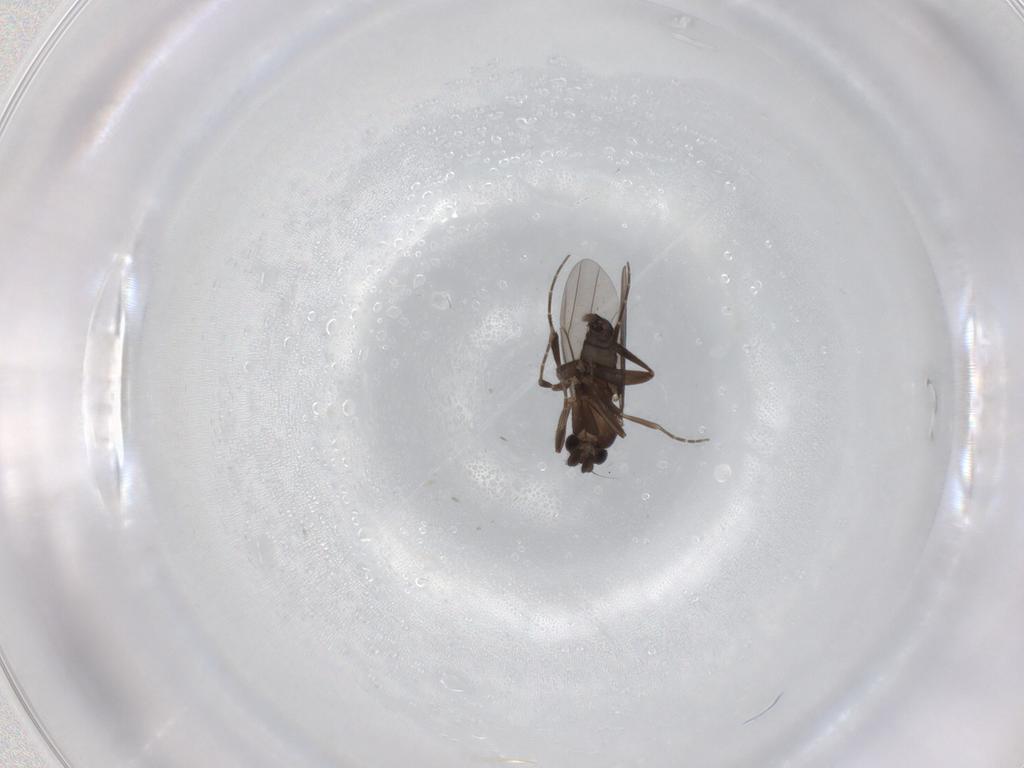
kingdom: Animalia
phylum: Arthropoda
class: Insecta
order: Diptera
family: Phoridae
